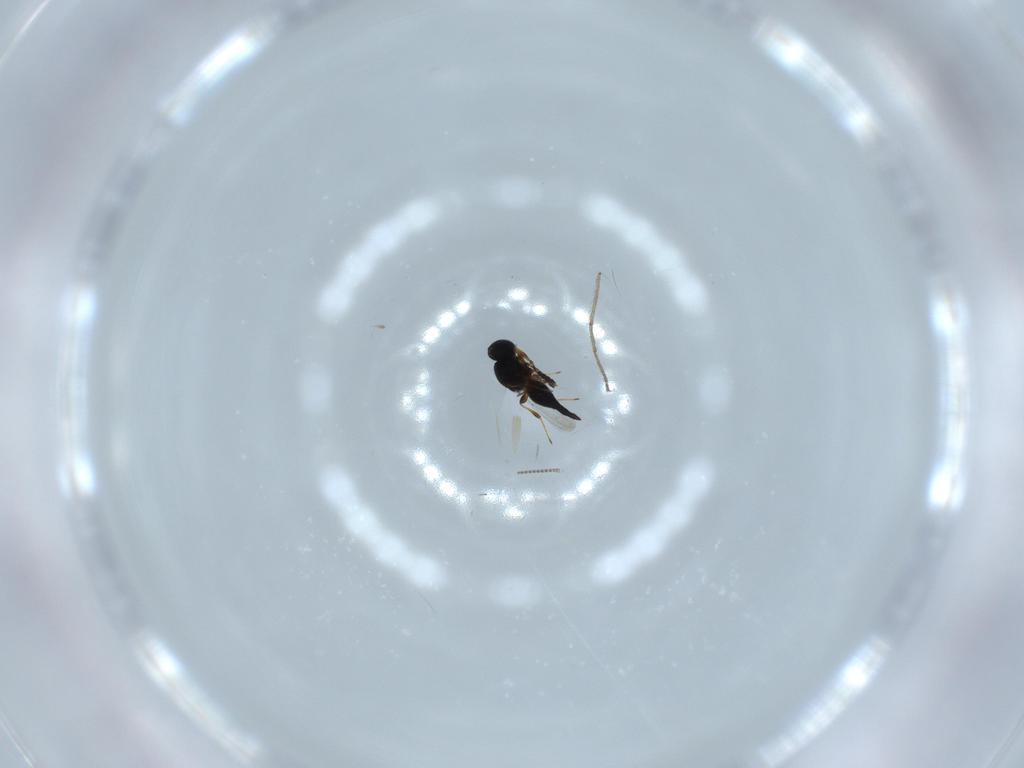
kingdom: Animalia
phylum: Arthropoda
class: Insecta
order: Hymenoptera
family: Platygastridae
